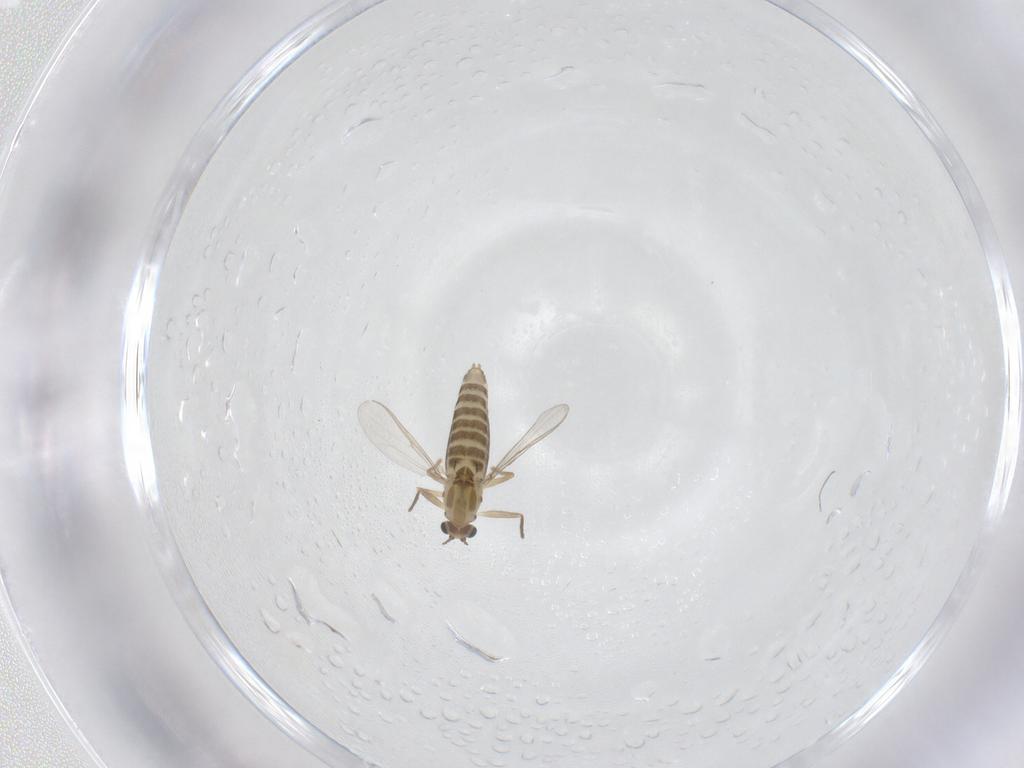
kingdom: Animalia
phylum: Arthropoda
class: Insecta
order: Diptera
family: Chironomidae
